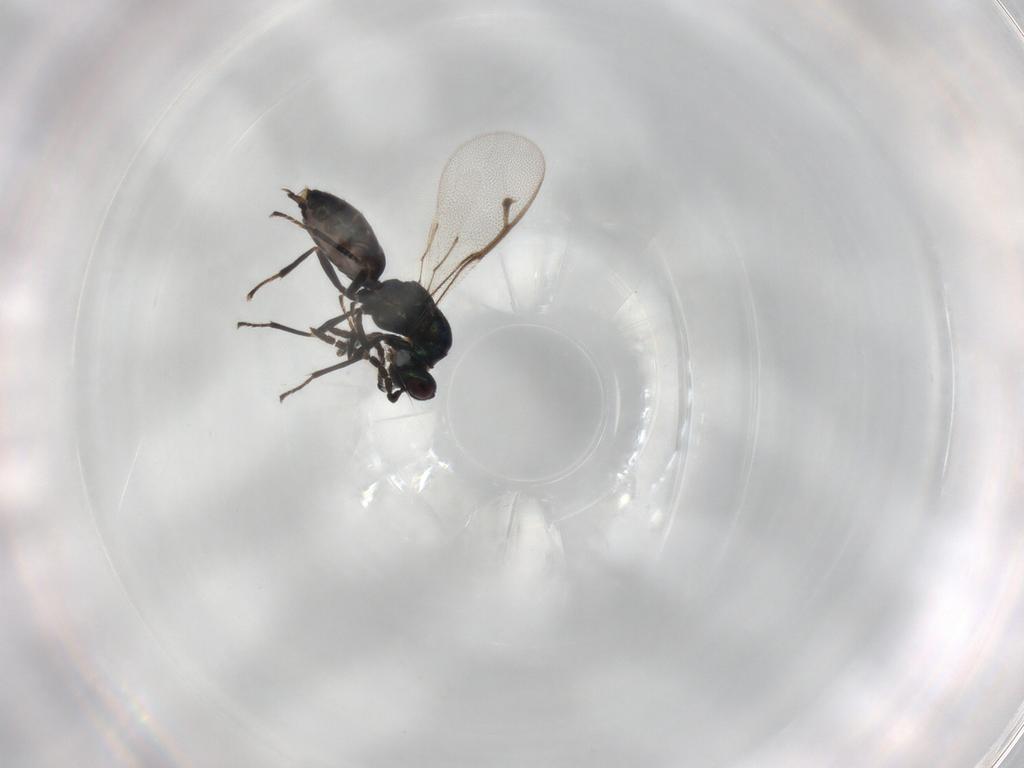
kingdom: Animalia
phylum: Arthropoda
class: Insecta
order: Hymenoptera
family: Pteromalidae
